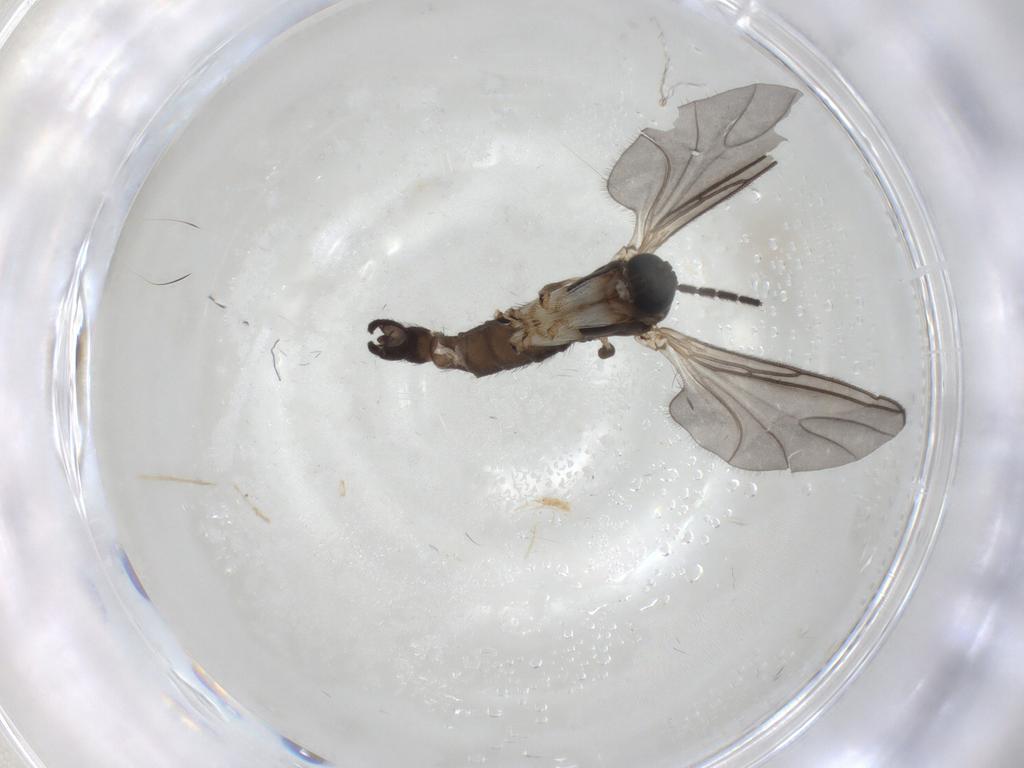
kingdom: Animalia
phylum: Arthropoda
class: Insecta
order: Diptera
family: Sciaridae
